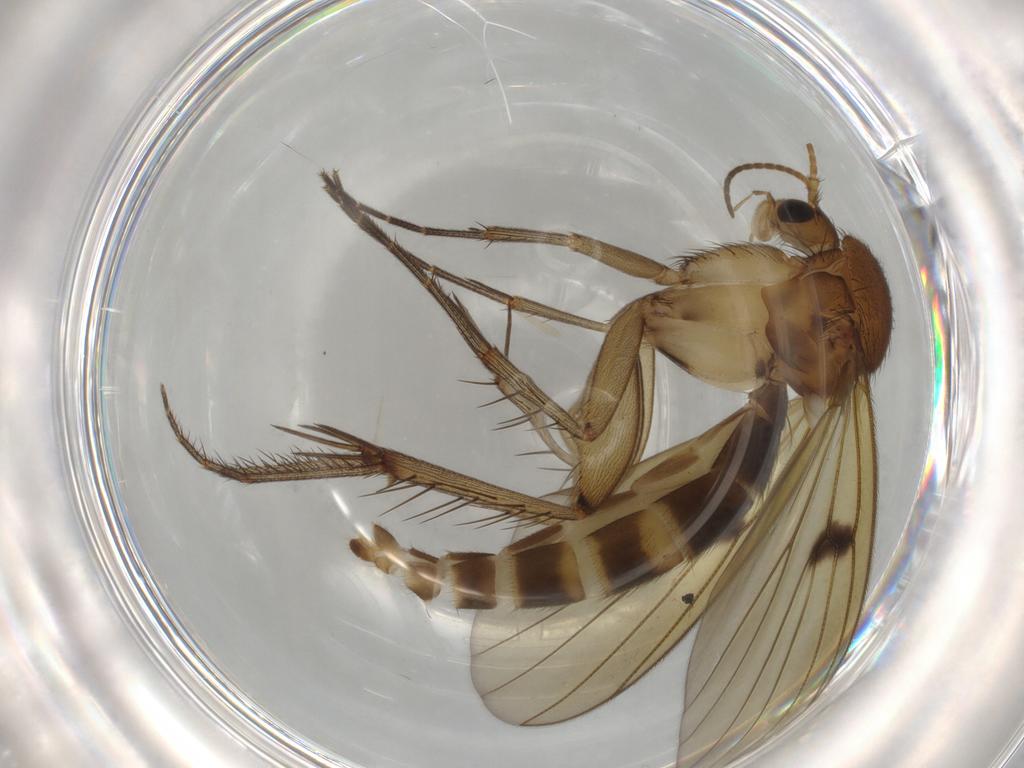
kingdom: Animalia
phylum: Arthropoda
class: Insecta
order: Diptera
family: Mycetophilidae
